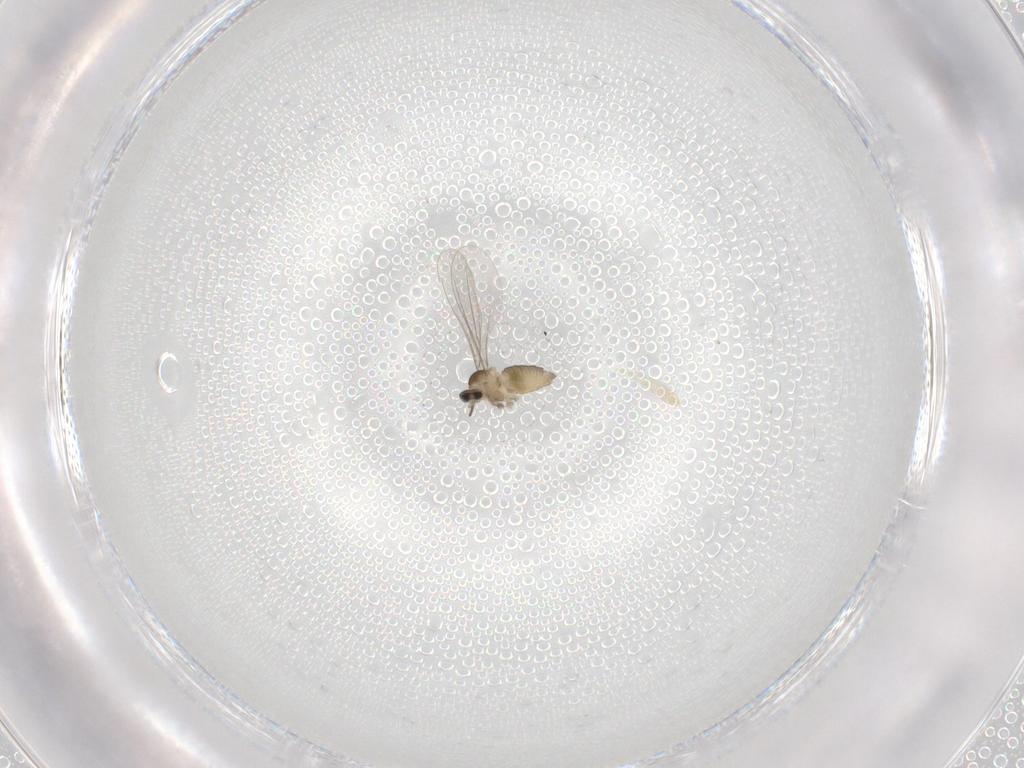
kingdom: Animalia
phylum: Arthropoda
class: Insecta
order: Diptera
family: Cecidomyiidae
